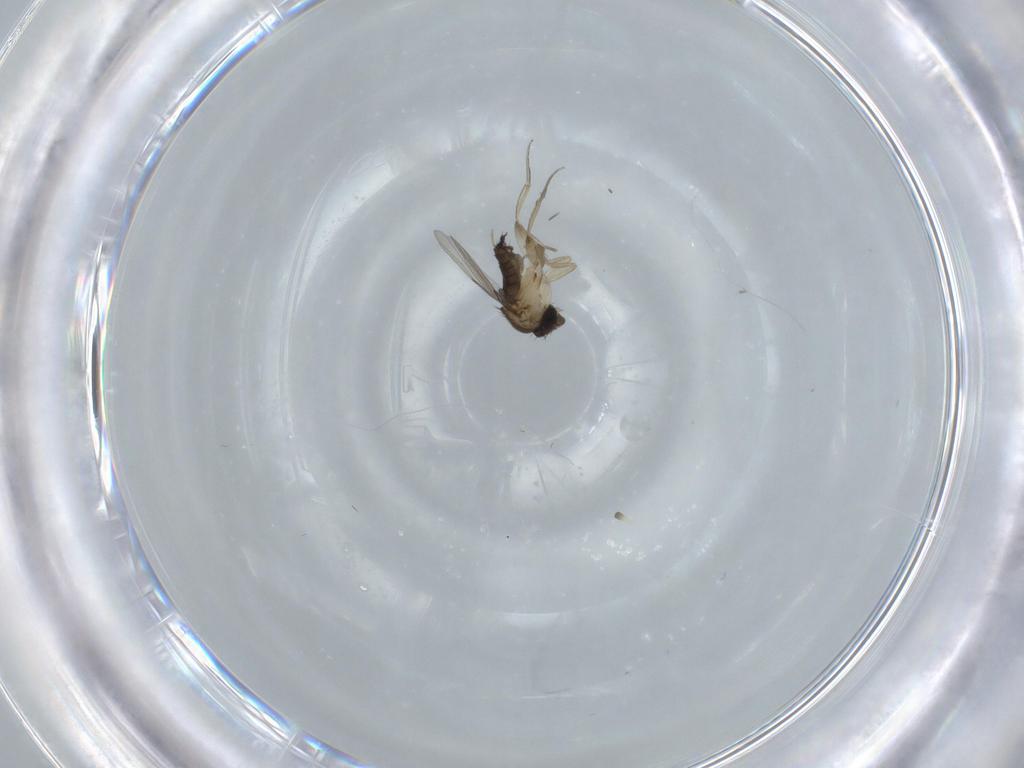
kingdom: Animalia
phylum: Arthropoda
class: Insecta
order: Diptera
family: Phoridae
